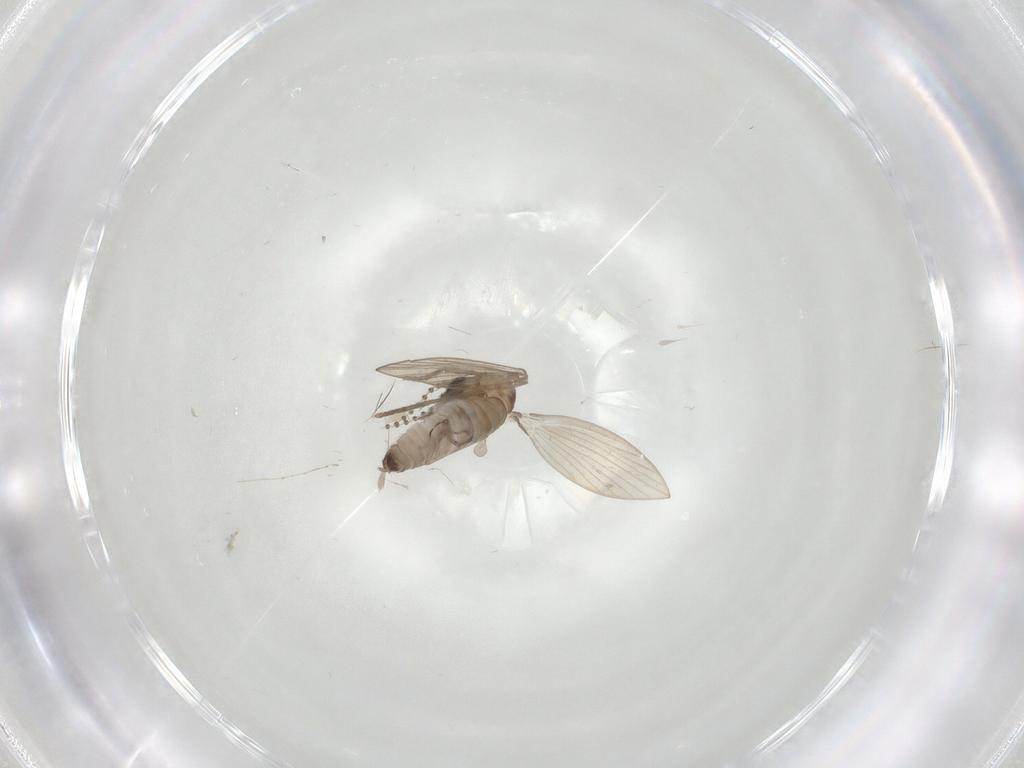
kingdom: Animalia
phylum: Arthropoda
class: Insecta
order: Diptera
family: Psychodidae
